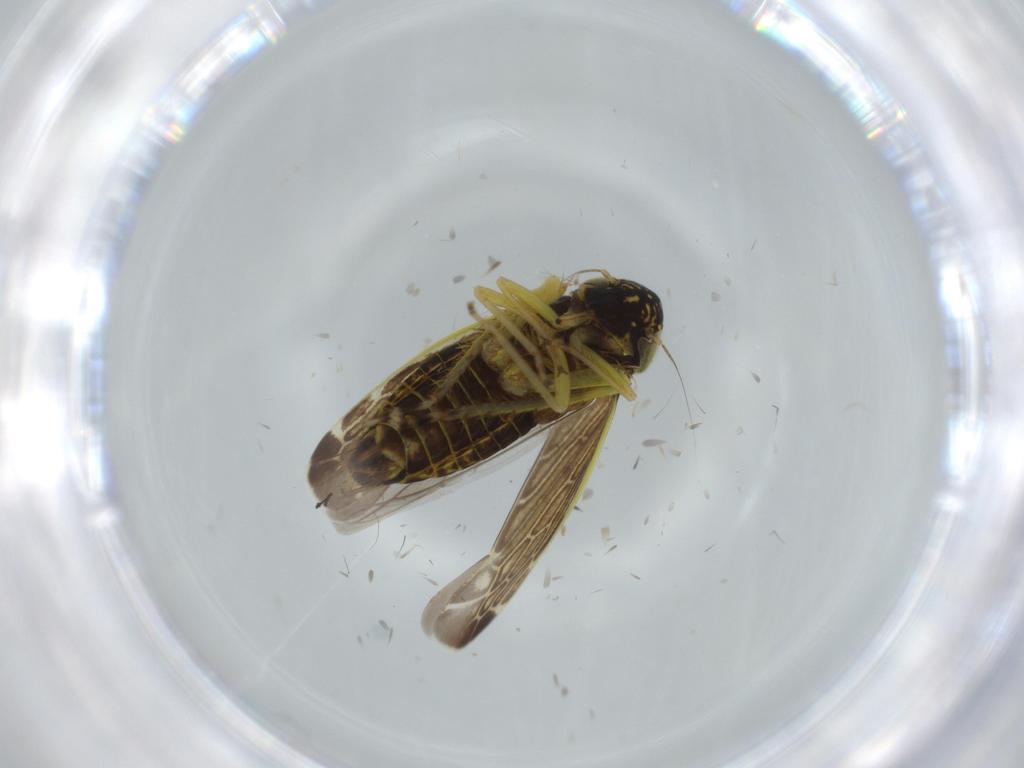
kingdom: Animalia
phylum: Arthropoda
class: Insecta
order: Hemiptera
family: Cicadellidae
